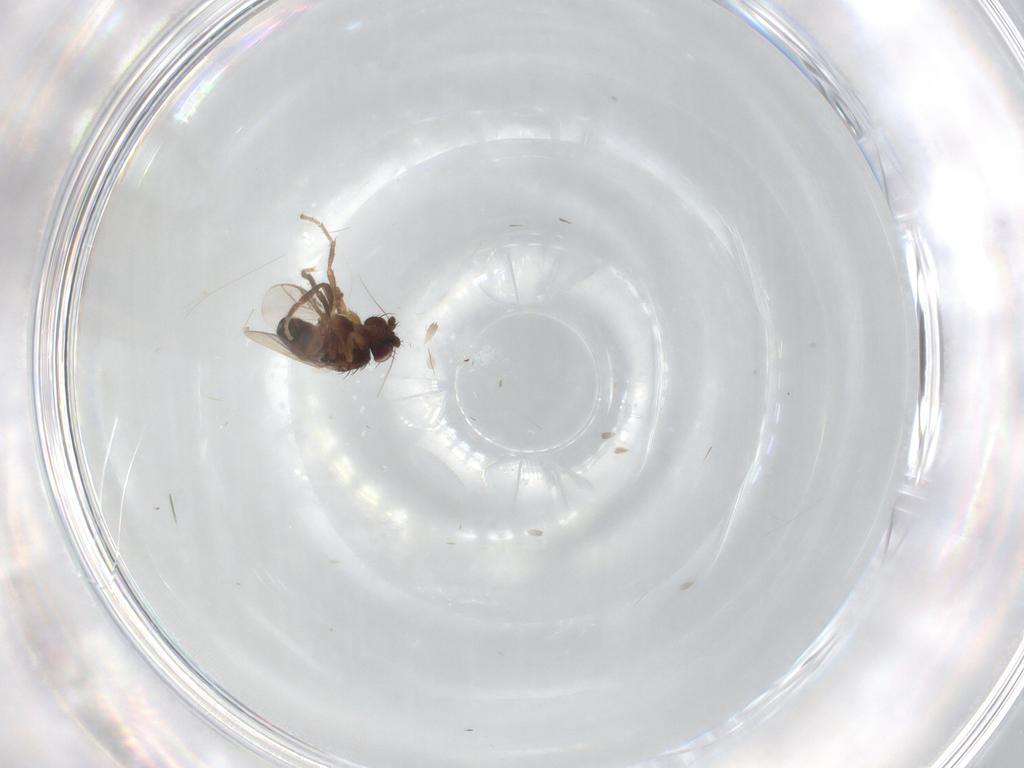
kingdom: Animalia
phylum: Arthropoda
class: Insecta
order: Diptera
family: Sphaeroceridae
